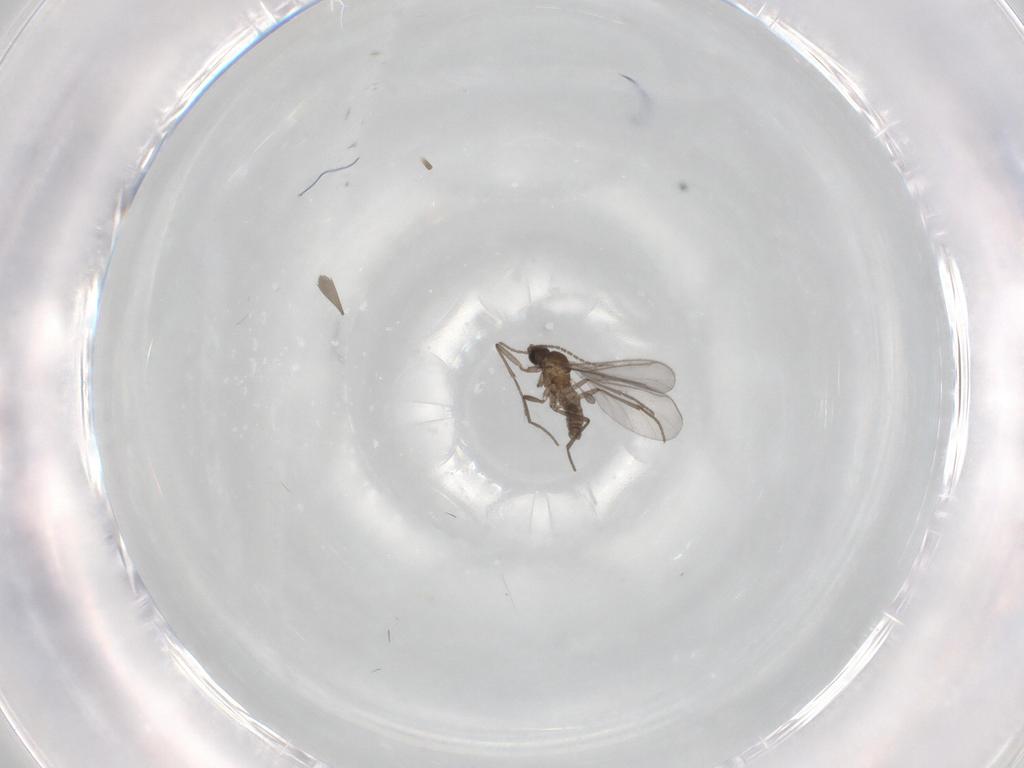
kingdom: Animalia
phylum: Arthropoda
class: Insecta
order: Diptera
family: Sciaridae
